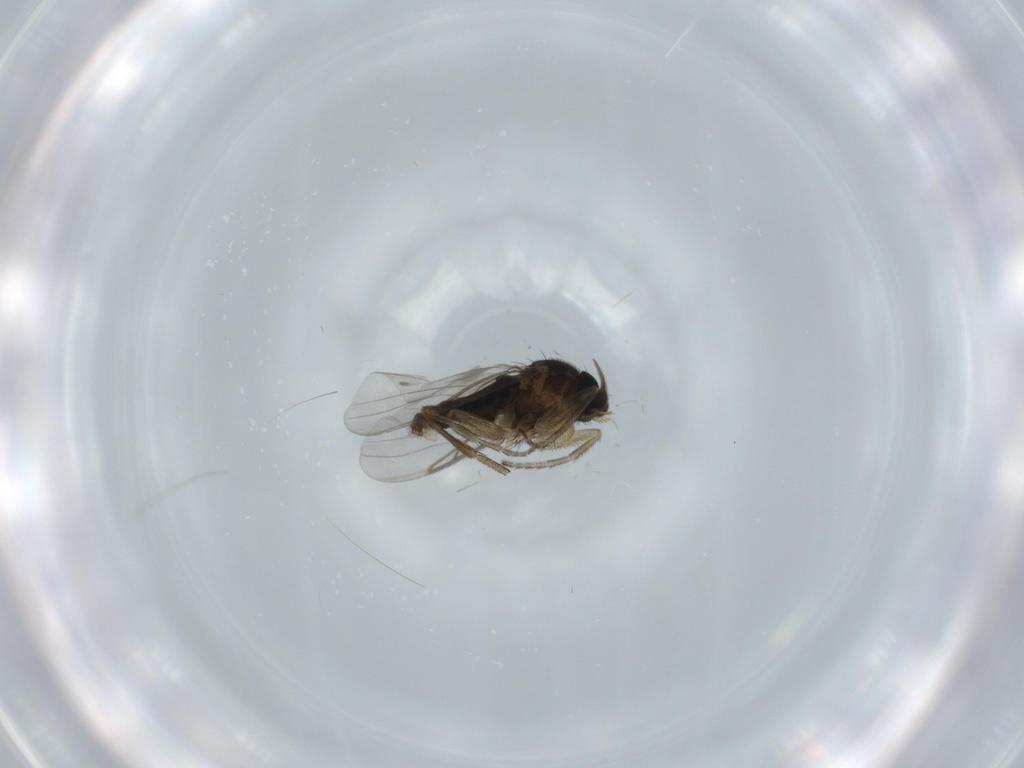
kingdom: Animalia
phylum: Arthropoda
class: Insecta
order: Diptera
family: Phoridae
